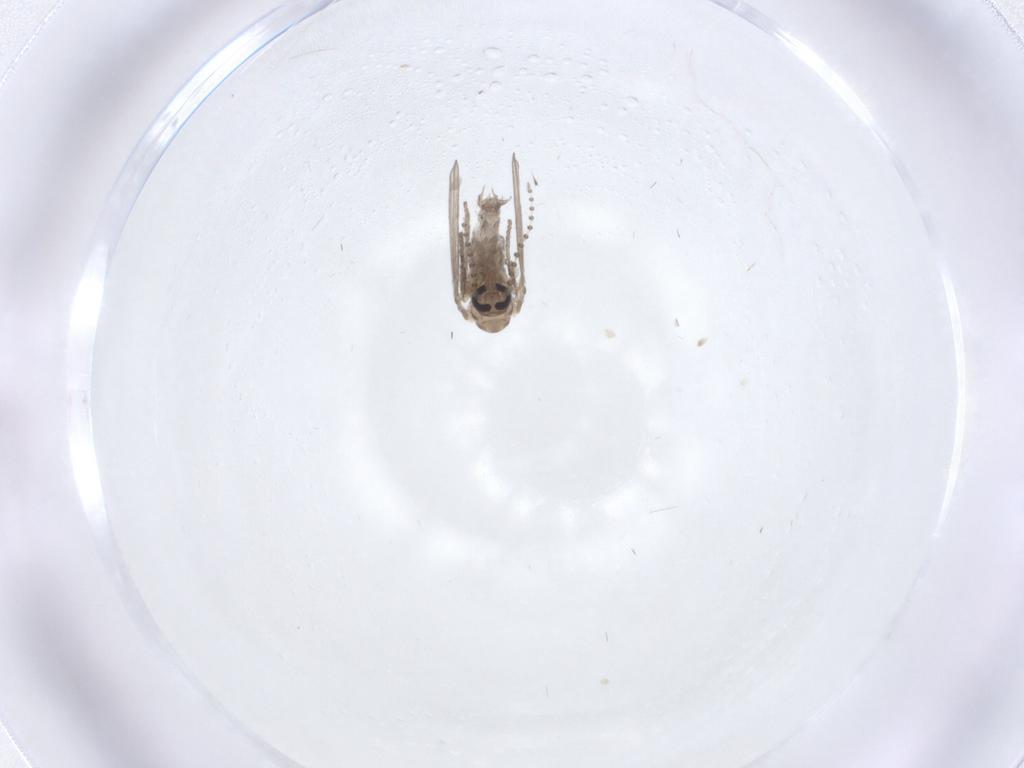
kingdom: Animalia
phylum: Arthropoda
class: Insecta
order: Diptera
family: Psychodidae
